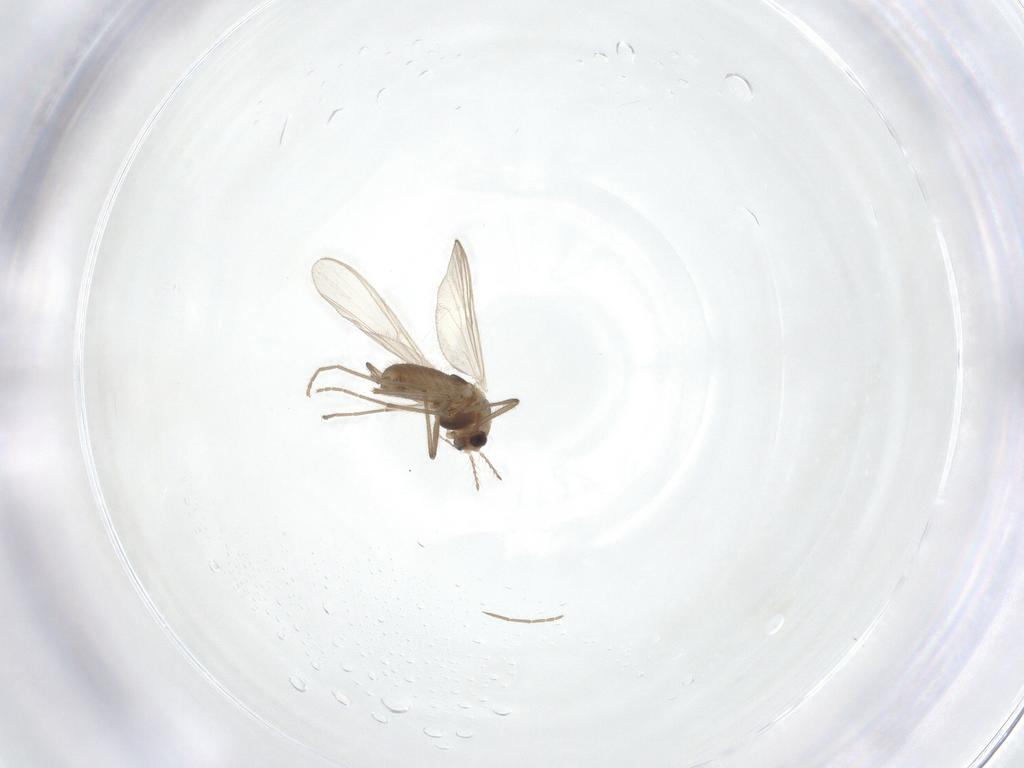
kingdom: Animalia
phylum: Arthropoda
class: Insecta
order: Diptera
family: Chironomidae
